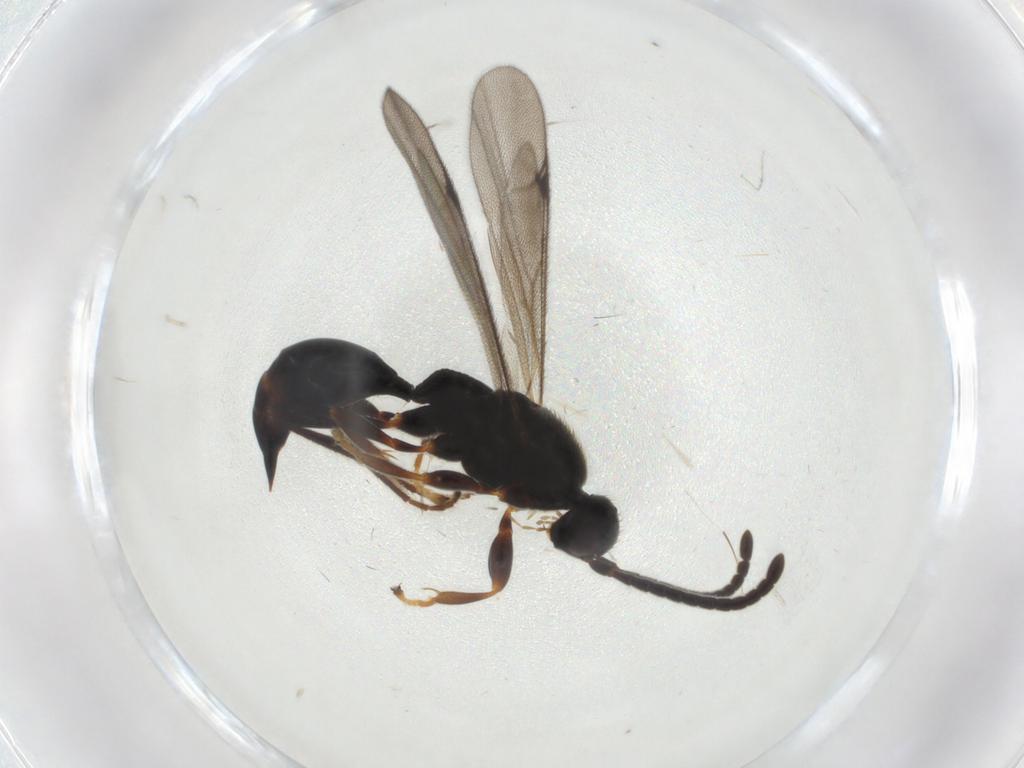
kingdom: Animalia
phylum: Arthropoda
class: Insecta
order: Hymenoptera
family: Proctotrupidae
